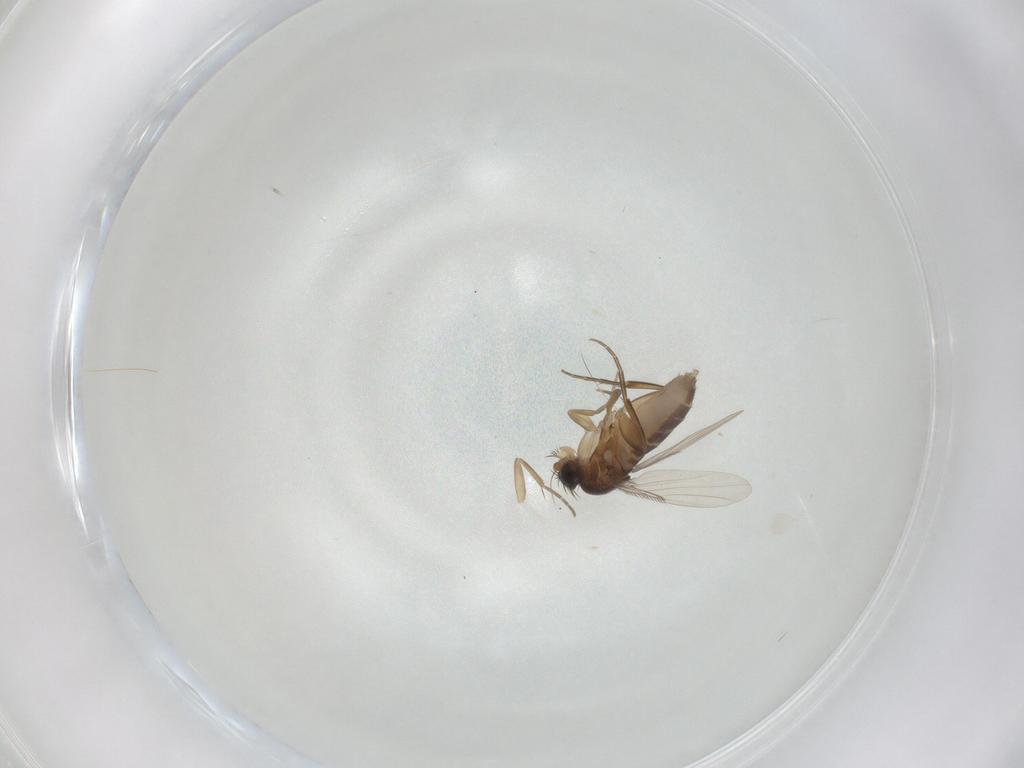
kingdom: Animalia
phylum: Arthropoda
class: Insecta
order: Diptera
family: Phoridae
